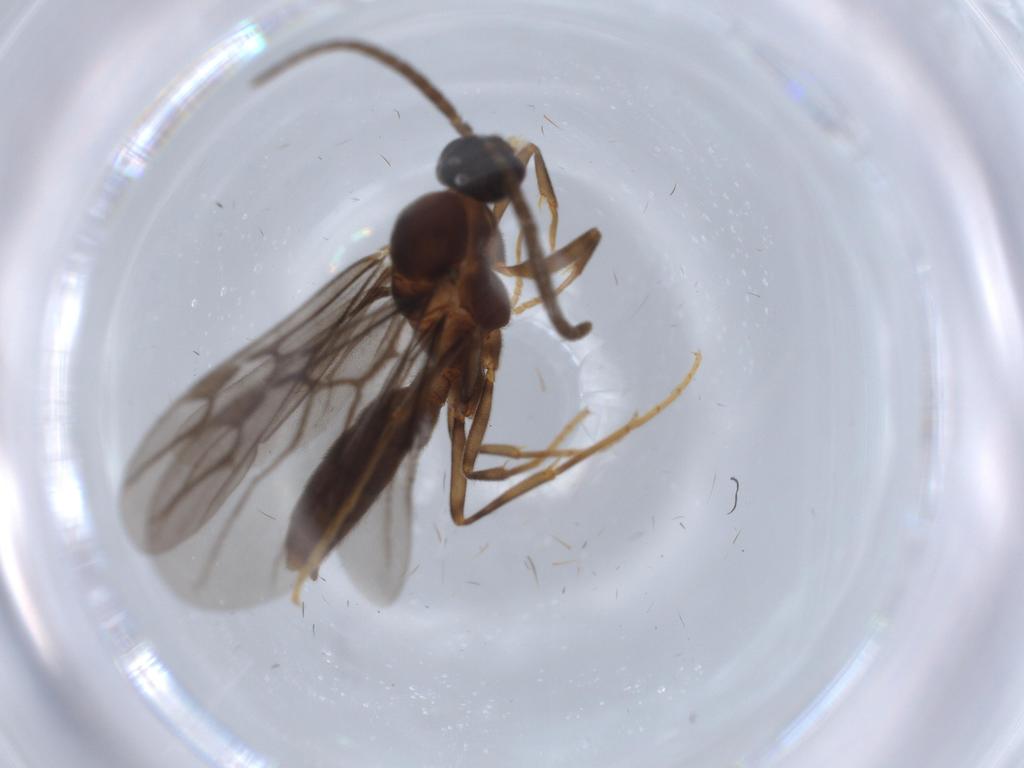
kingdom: Animalia
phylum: Arthropoda
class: Insecta
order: Hymenoptera
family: Formicidae
